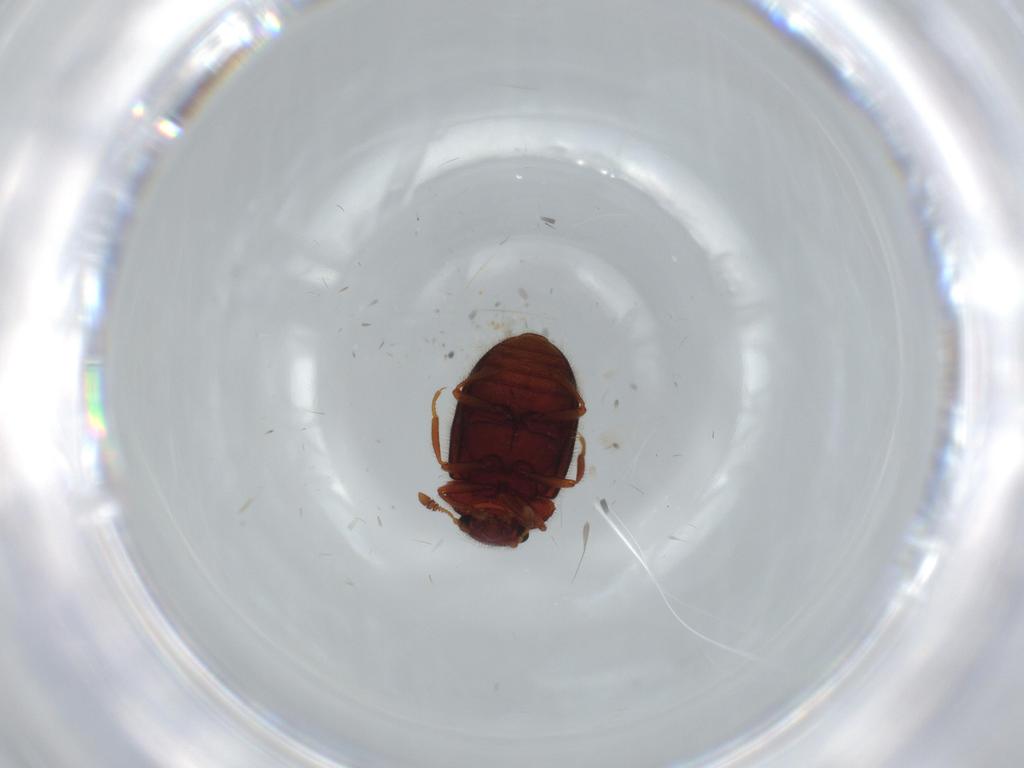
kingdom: Animalia
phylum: Arthropoda
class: Insecta
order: Coleoptera
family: Sphindidae
